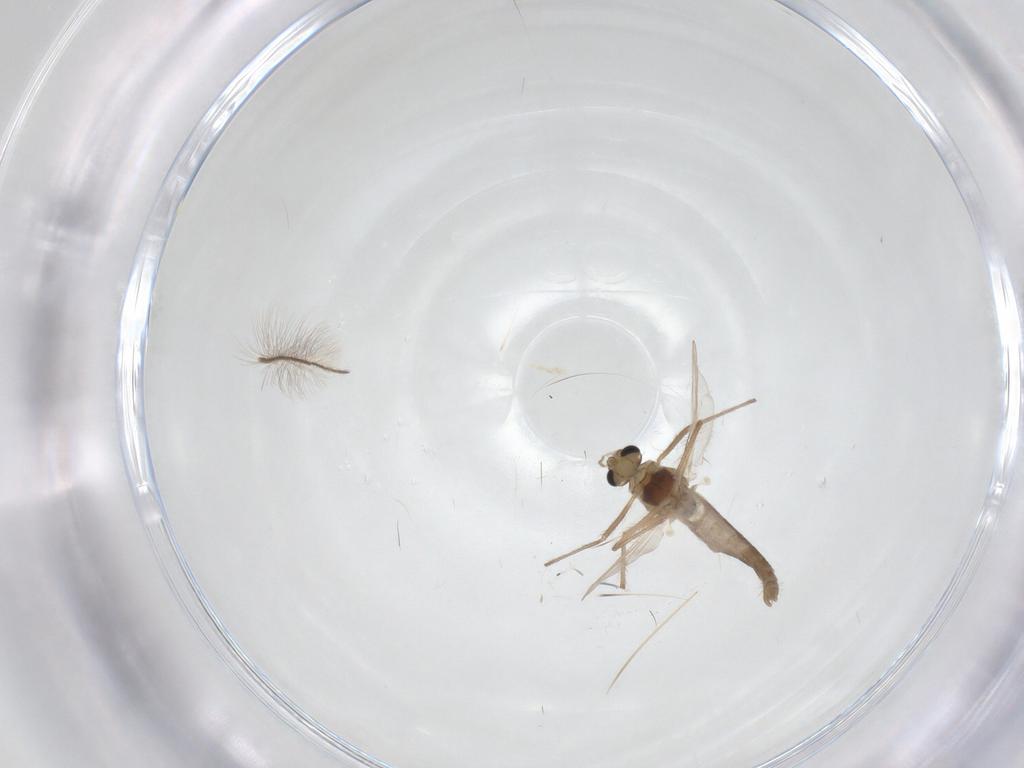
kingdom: Animalia
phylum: Arthropoda
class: Insecta
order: Diptera
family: Chironomidae
